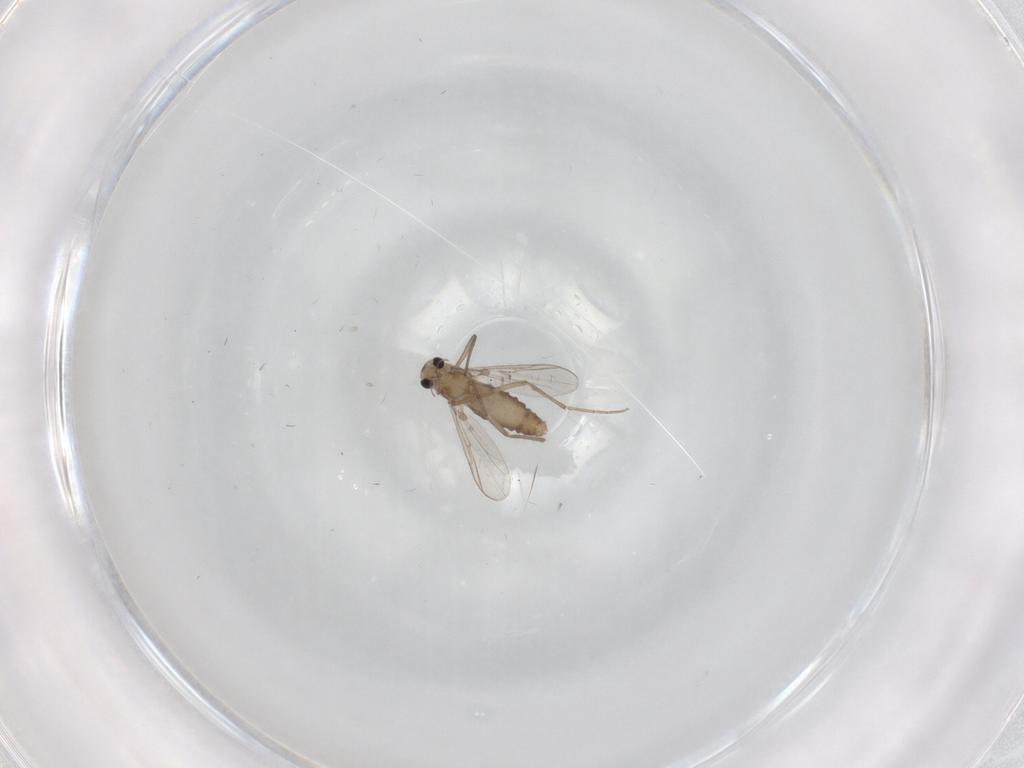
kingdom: Animalia
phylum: Arthropoda
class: Insecta
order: Diptera
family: Chironomidae
